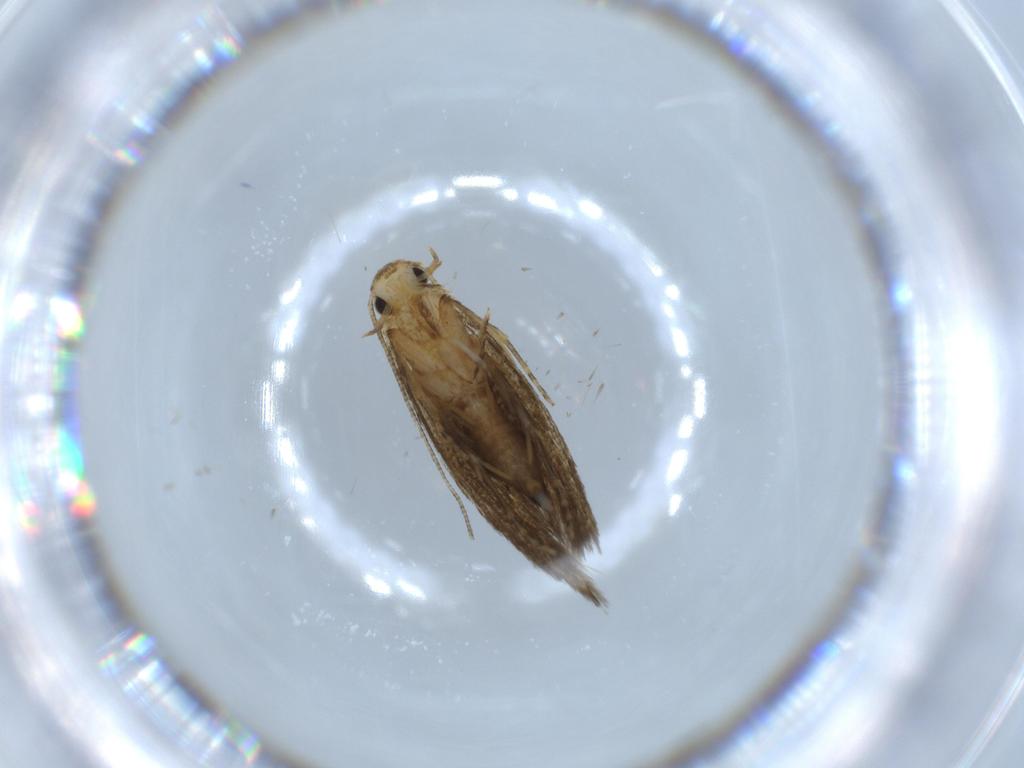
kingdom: Animalia
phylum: Arthropoda
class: Insecta
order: Lepidoptera
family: Tineidae
